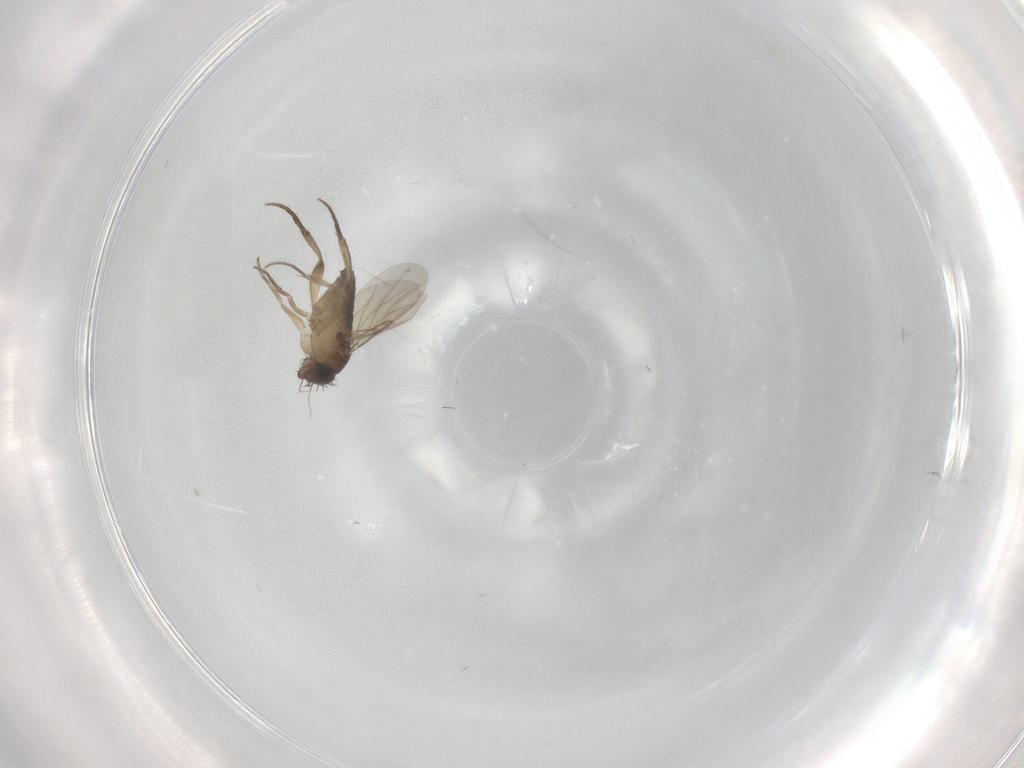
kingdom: Animalia
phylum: Arthropoda
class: Insecta
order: Diptera
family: Phoridae
